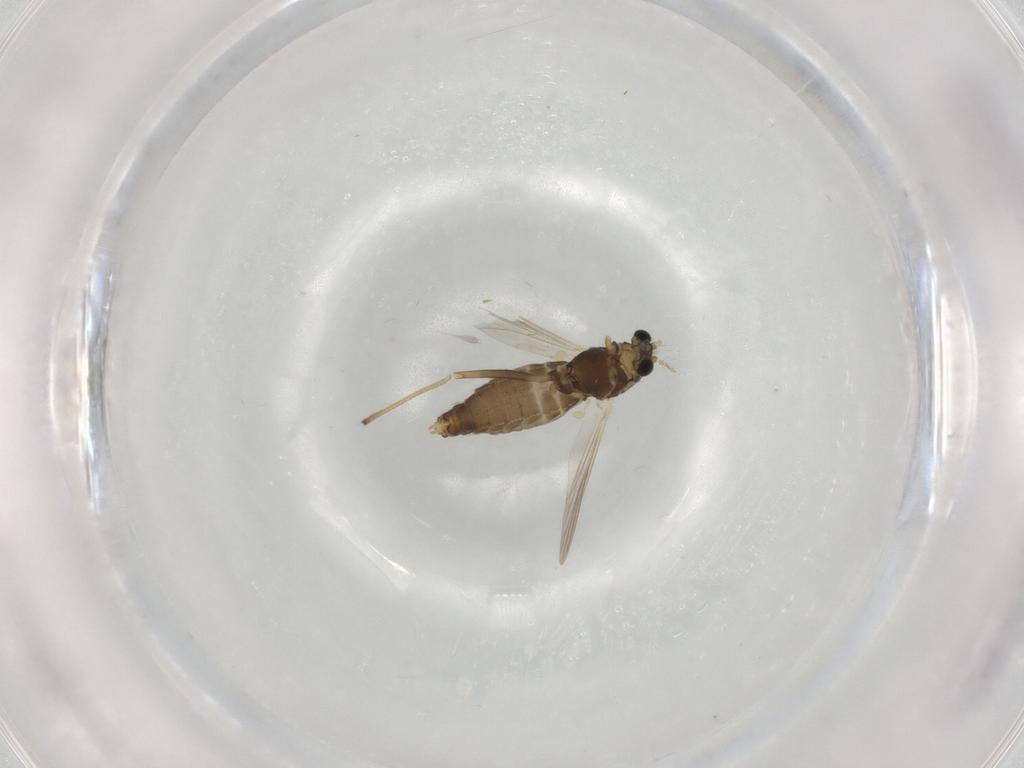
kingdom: Animalia
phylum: Arthropoda
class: Insecta
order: Diptera
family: Chironomidae
